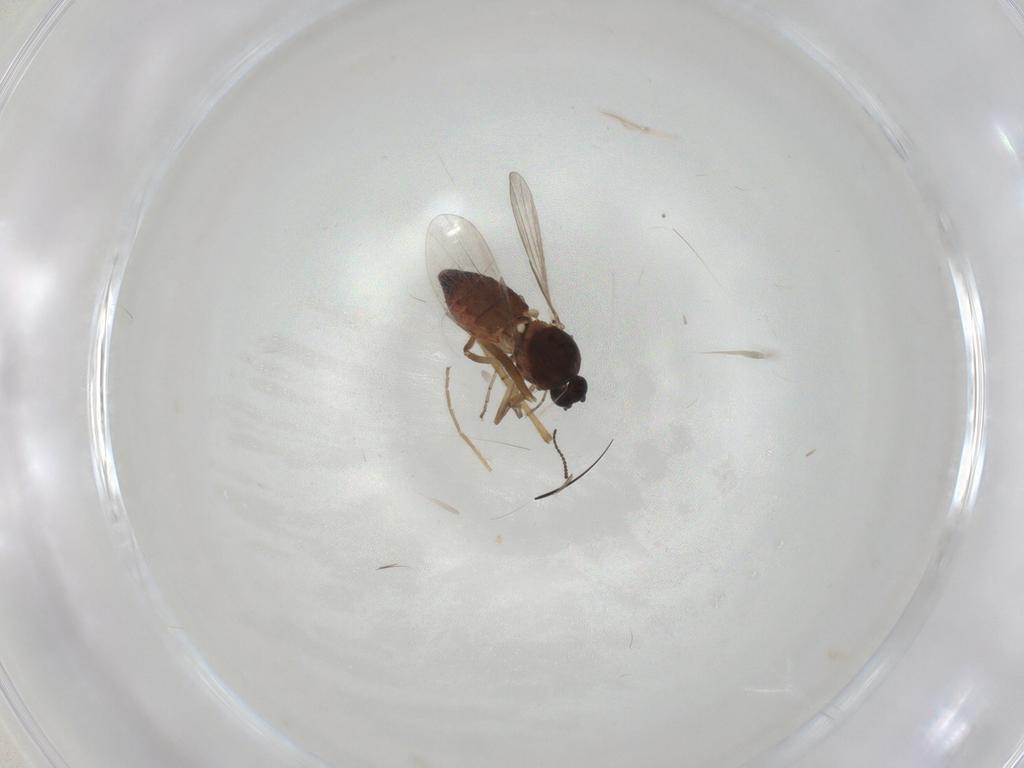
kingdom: Animalia
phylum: Arthropoda
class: Insecta
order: Diptera
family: Ceratopogonidae
